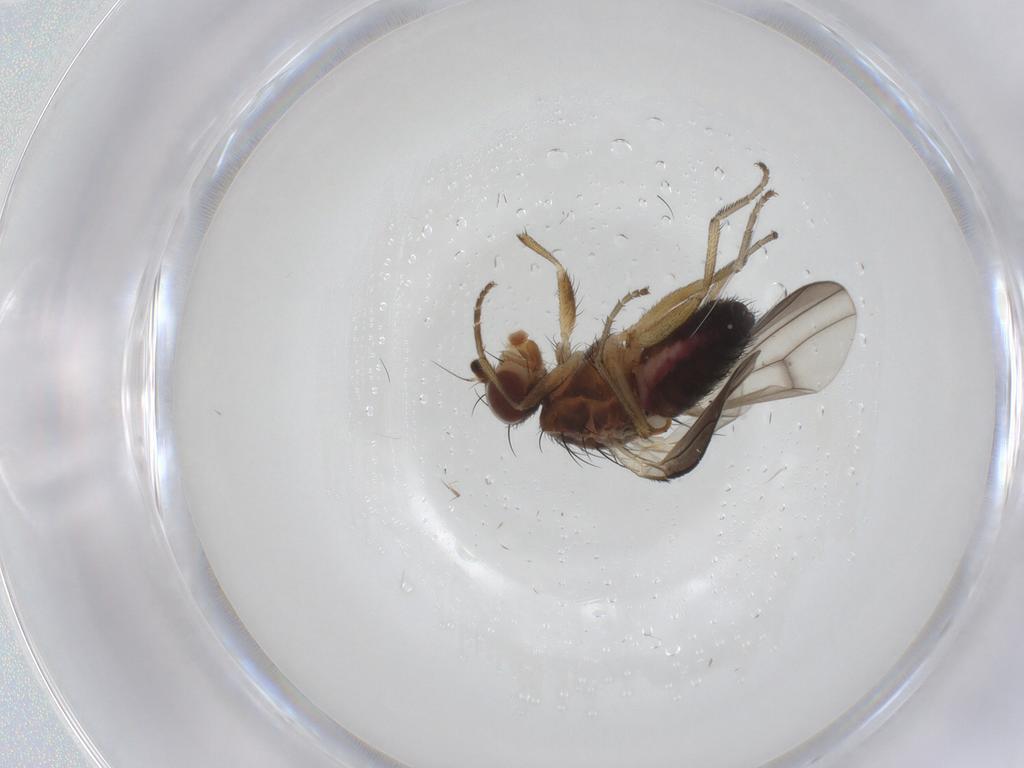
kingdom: Animalia
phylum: Arthropoda
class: Insecta
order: Diptera
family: Heleomyzidae
